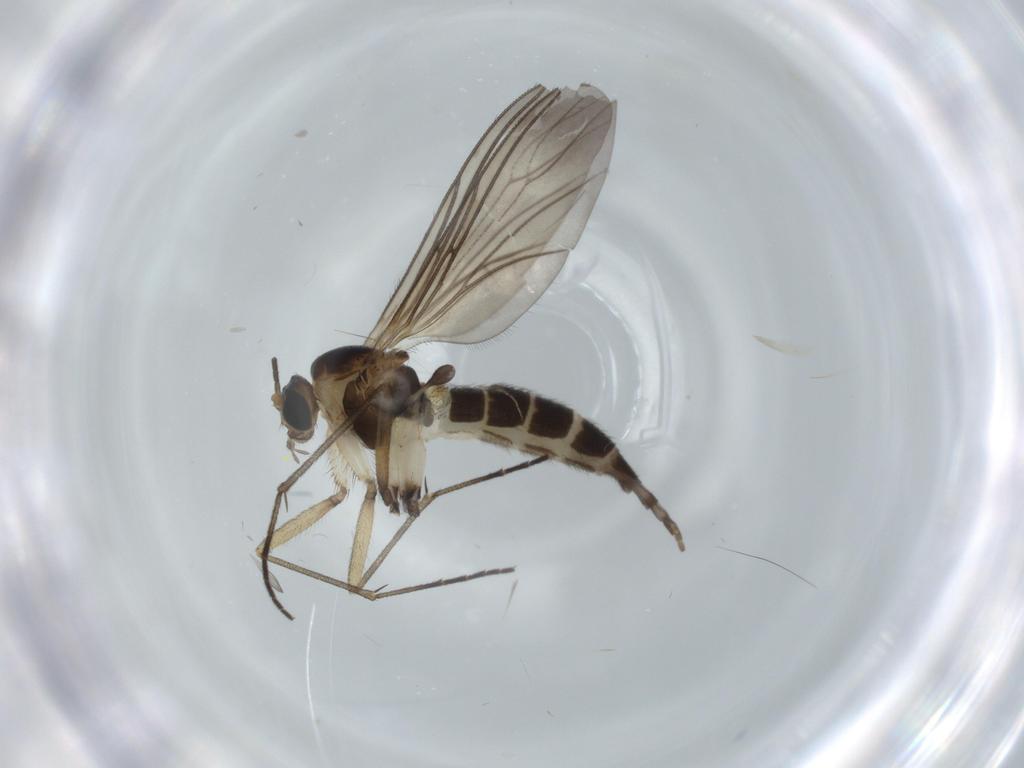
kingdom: Animalia
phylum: Arthropoda
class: Insecta
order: Diptera
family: Sciaridae
